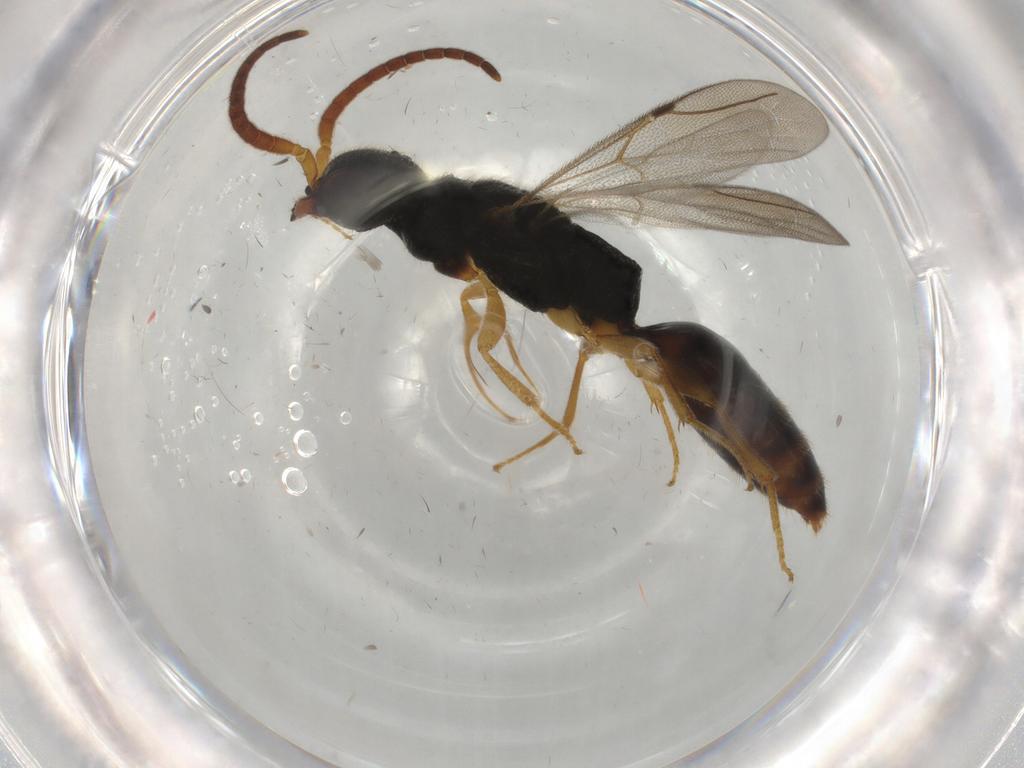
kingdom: Animalia
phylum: Arthropoda
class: Insecta
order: Hymenoptera
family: Bethylidae
